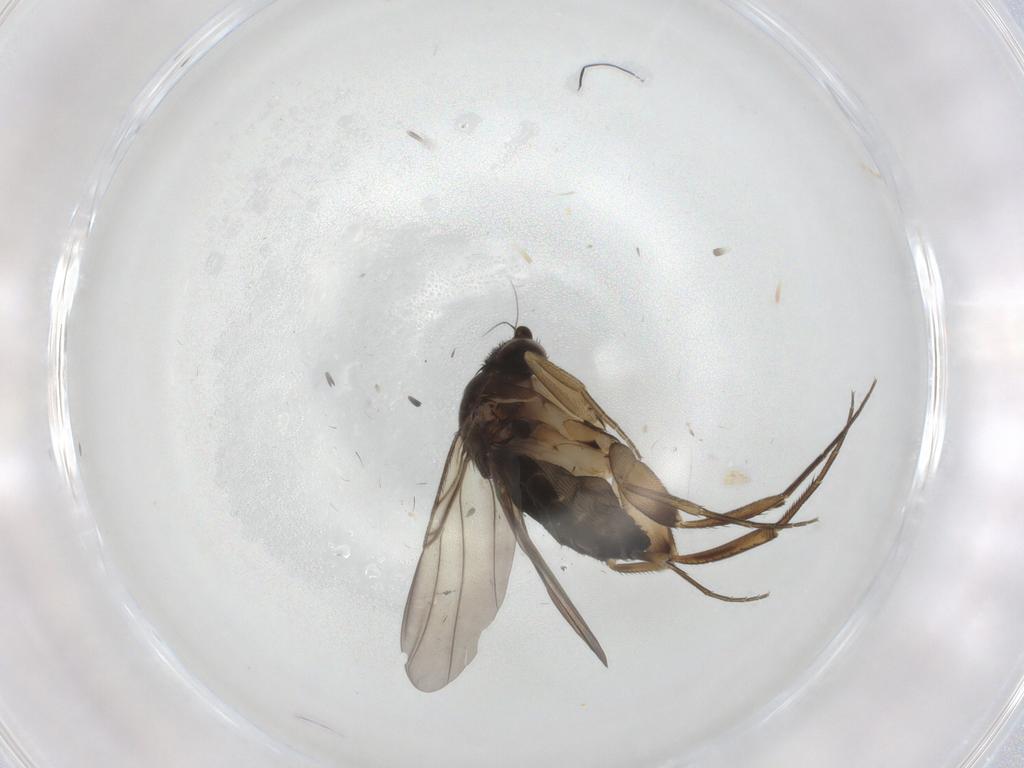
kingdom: Animalia
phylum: Arthropoda
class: Insecta
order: Diptera
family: Phoridae
